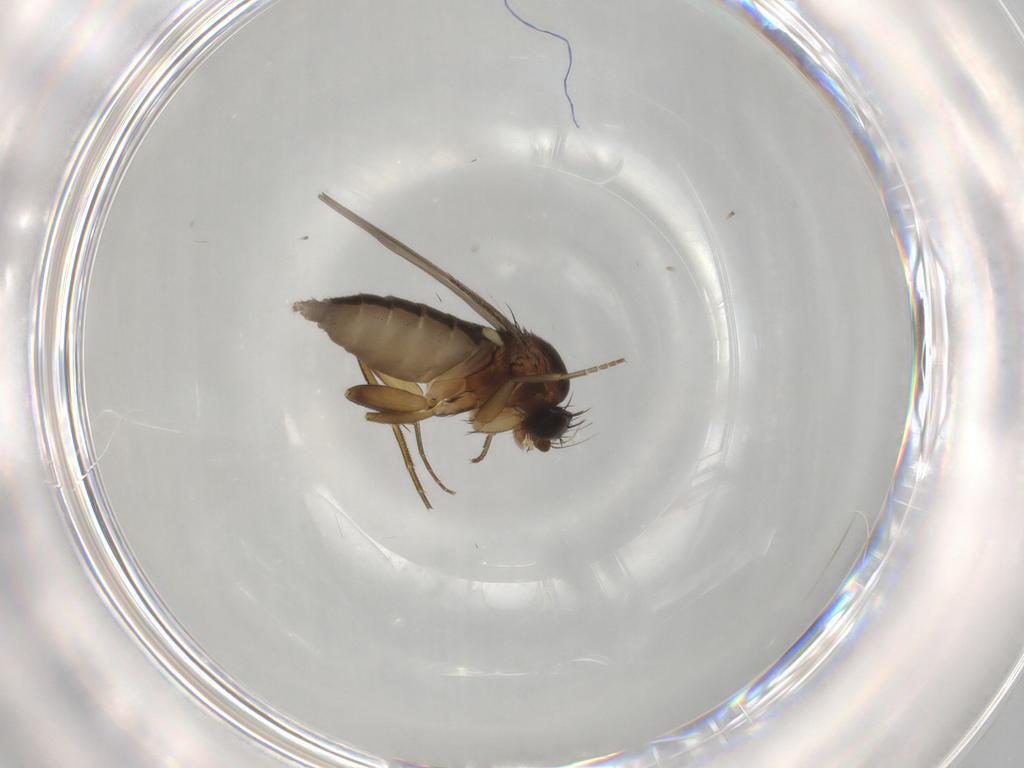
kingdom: Animalia
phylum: Arthropoda
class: Insecta
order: Diptera
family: Phoridae
